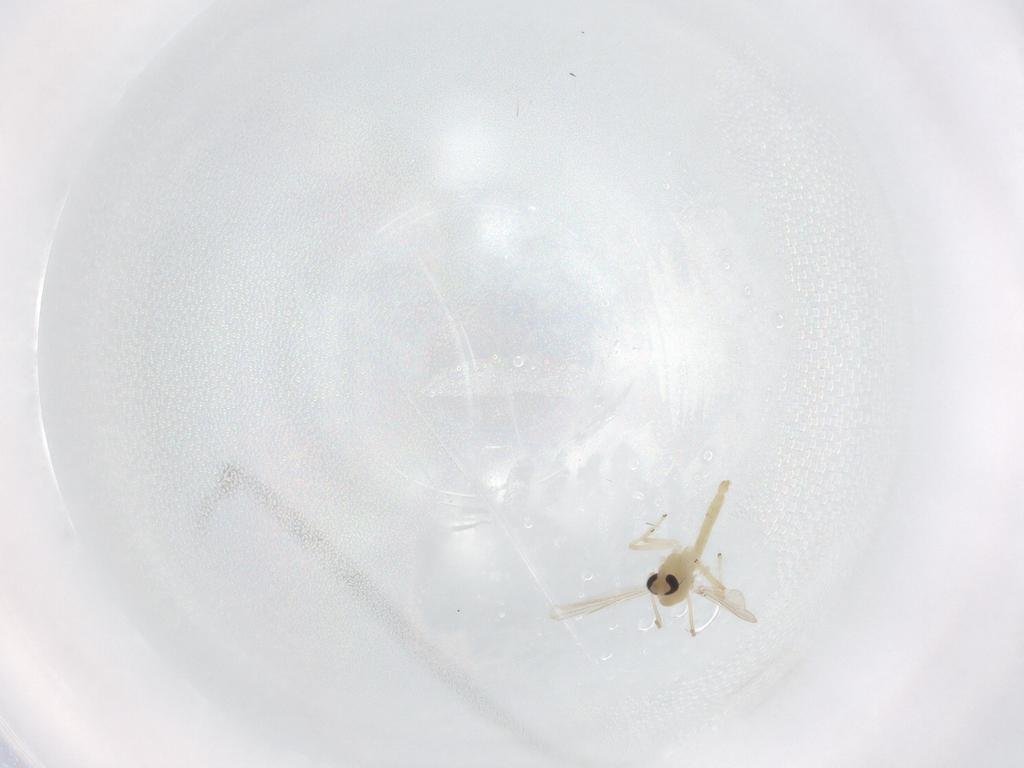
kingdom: Animalia
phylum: Arthropoda
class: Insecta
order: Diptera
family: Chironomidae
